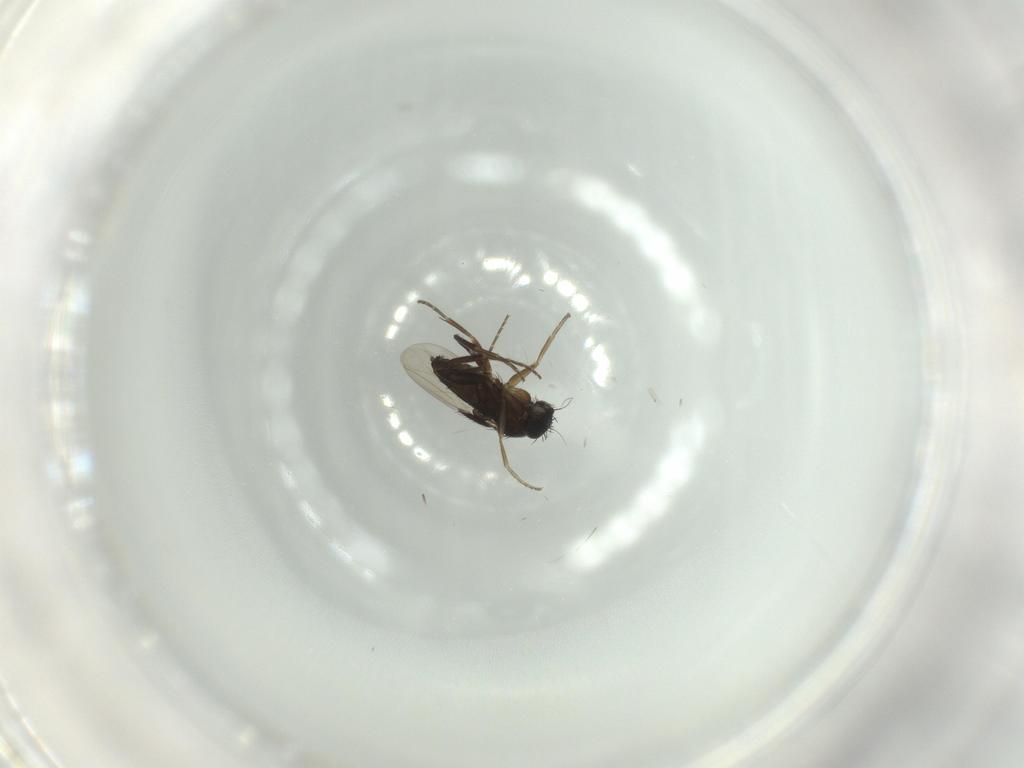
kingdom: Animalia
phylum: Arthropoda
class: Insecta
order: Diptera
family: Phoridae
